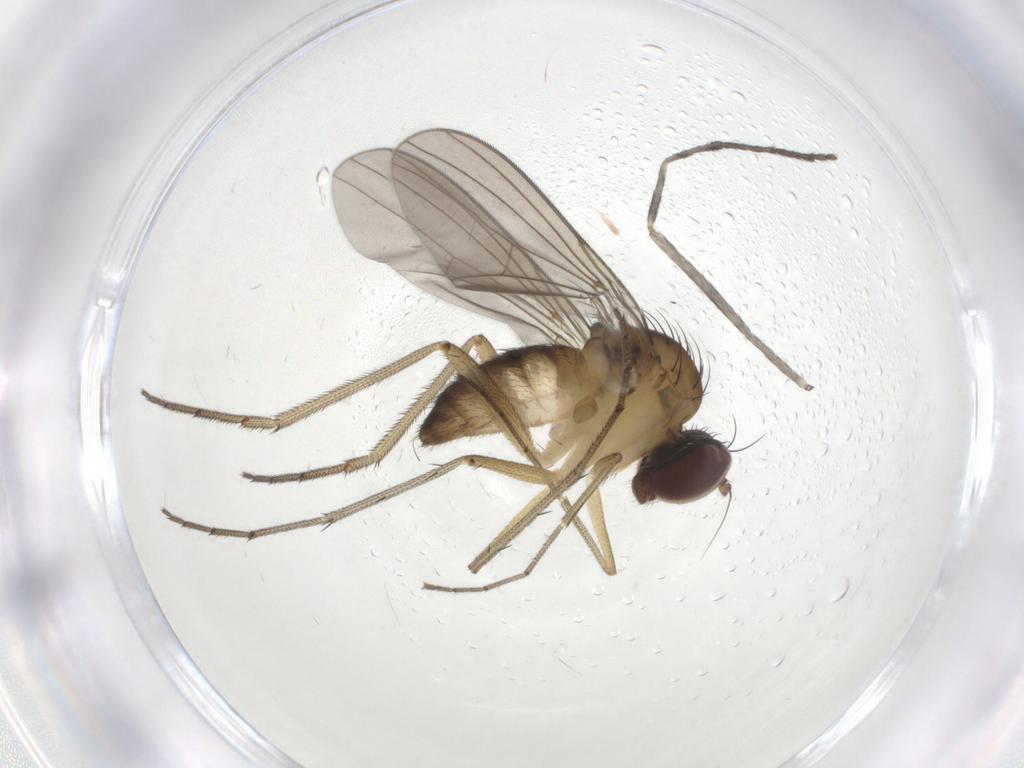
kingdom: Animalia
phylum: Arthropoda
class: Insecta
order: Diptera
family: Limoniidae
